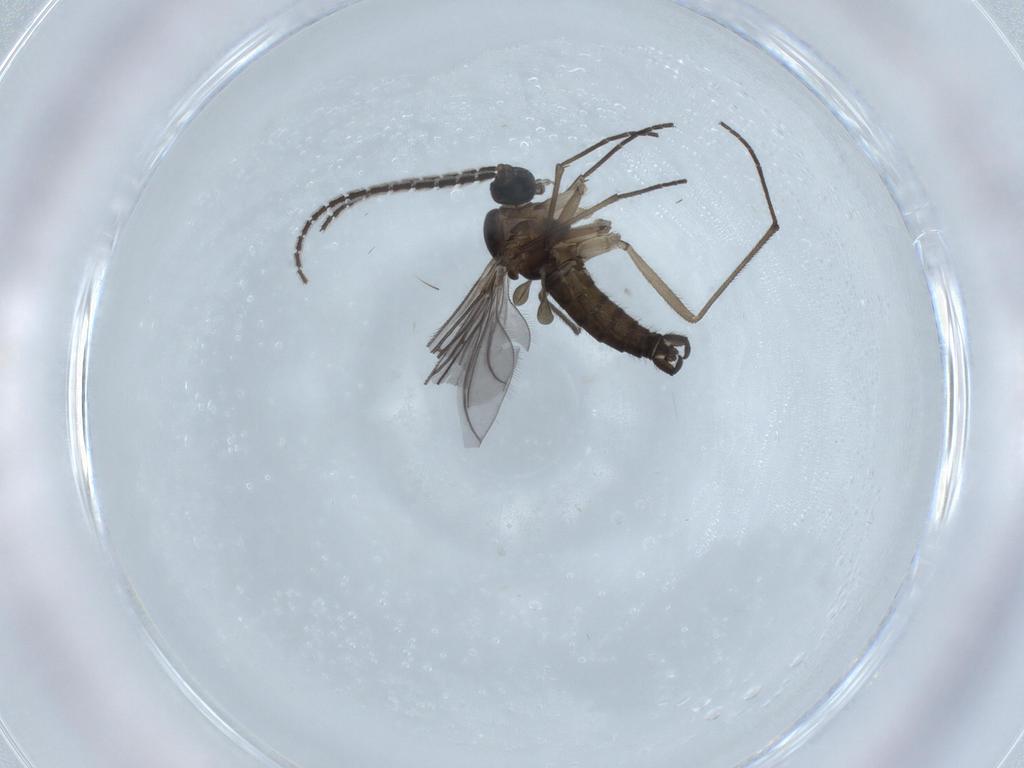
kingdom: Animalia
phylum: Arthropoda
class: Insecta
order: Diptera
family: Sciaridae
